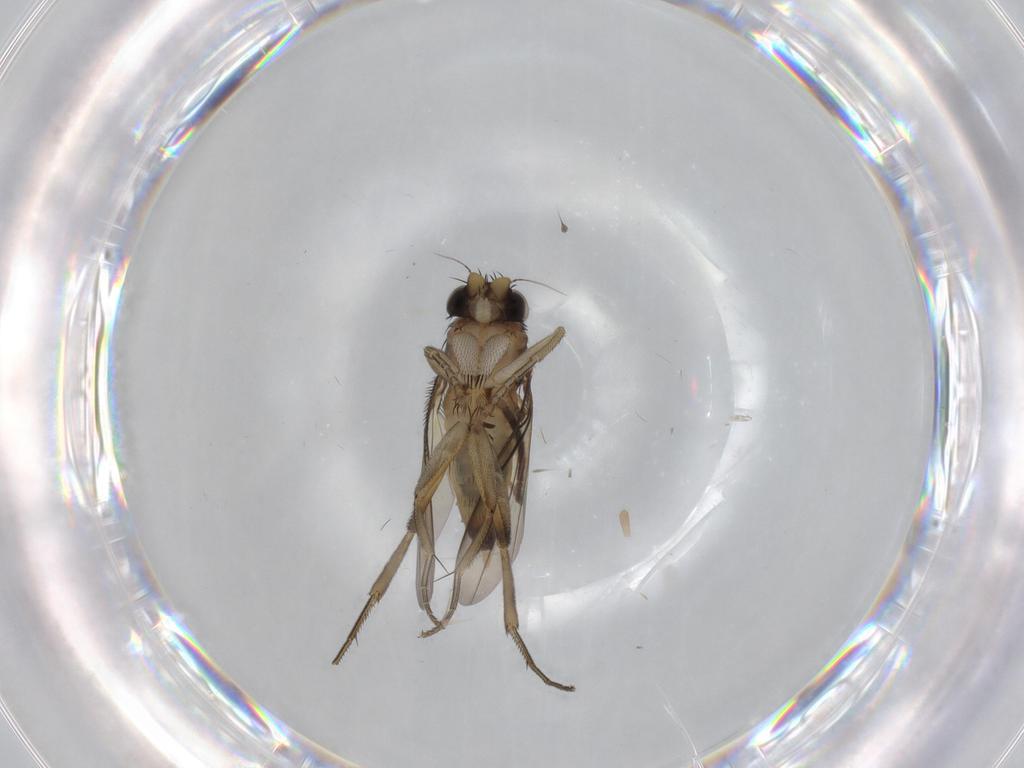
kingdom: Animalia
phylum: Arthropoda
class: Insecta
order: Diptera
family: Phoridae
